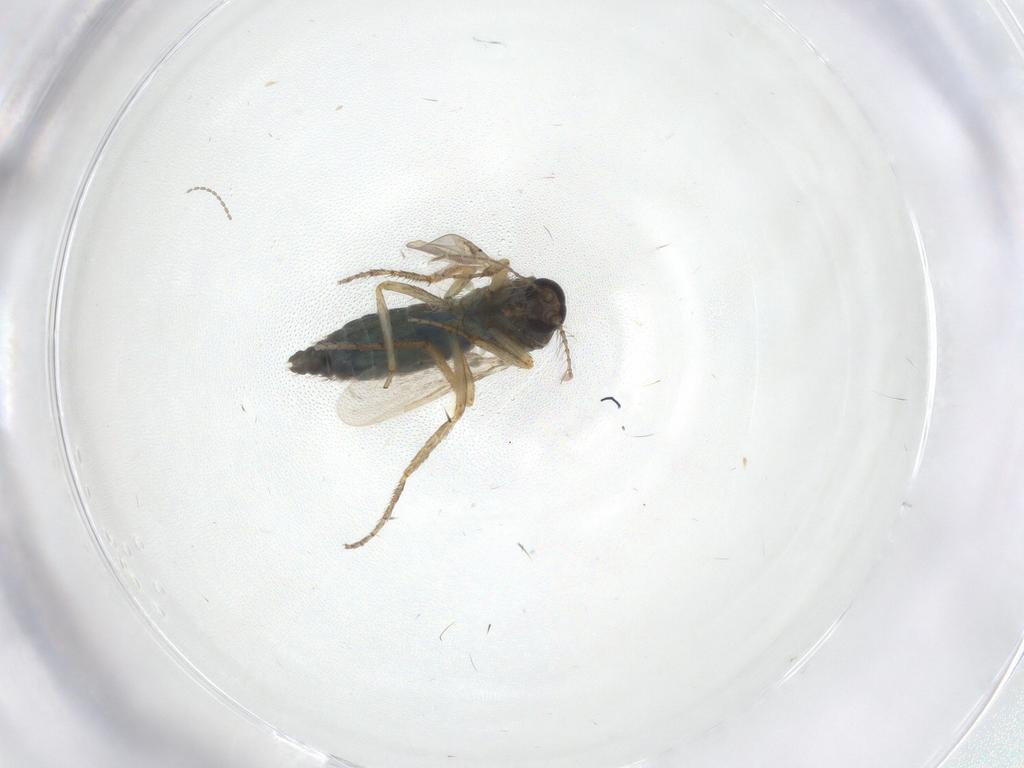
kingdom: Animalia
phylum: Arthropoda
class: Insecta
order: Diptera
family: Ceratopogonidae
